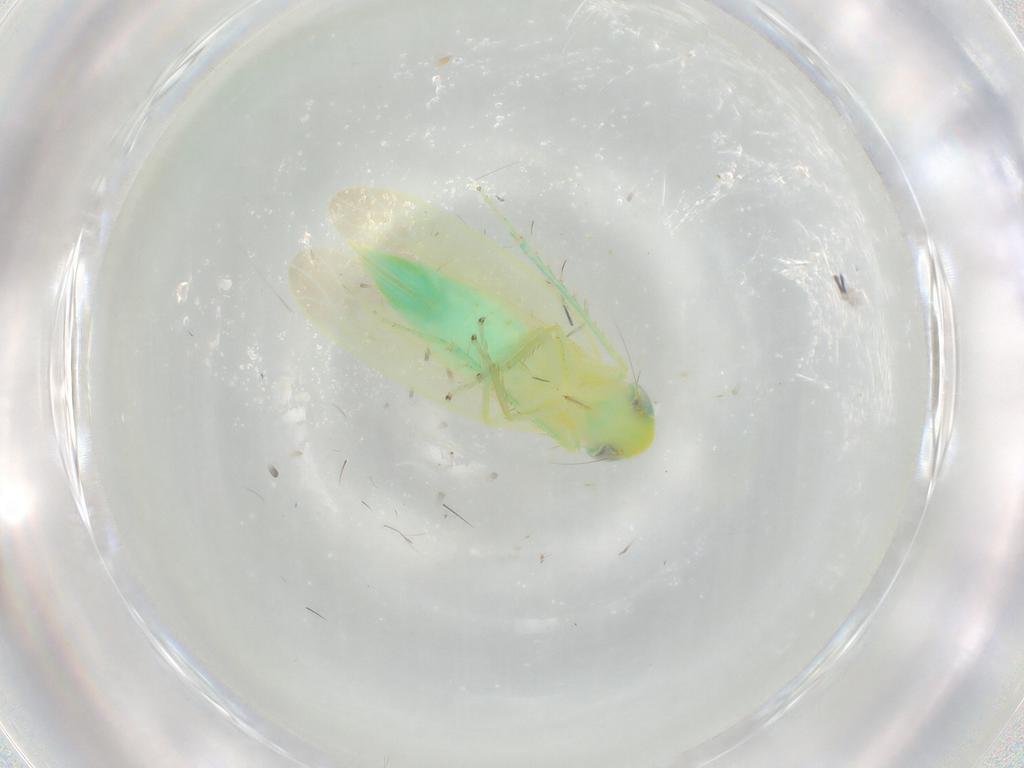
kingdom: Animalia
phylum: Arthropoda
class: Insecta
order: Hemiptera
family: Cicadellidae
